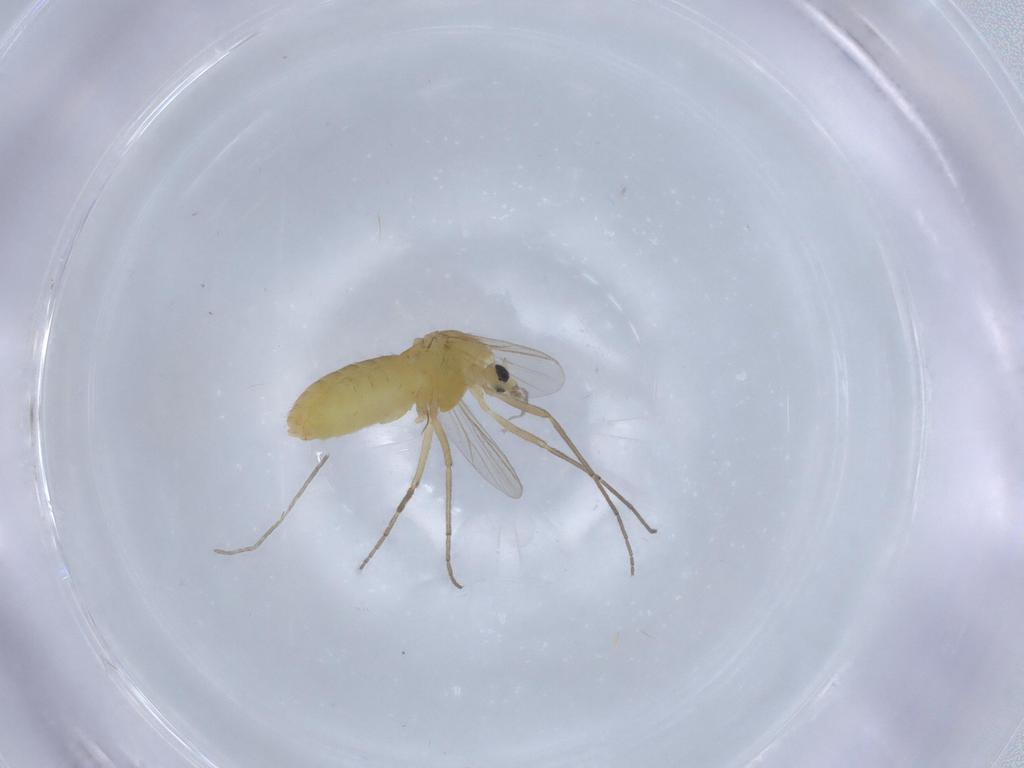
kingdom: Animalia
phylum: Arthropoda
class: Insecta
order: Diptera
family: Chironomidae
